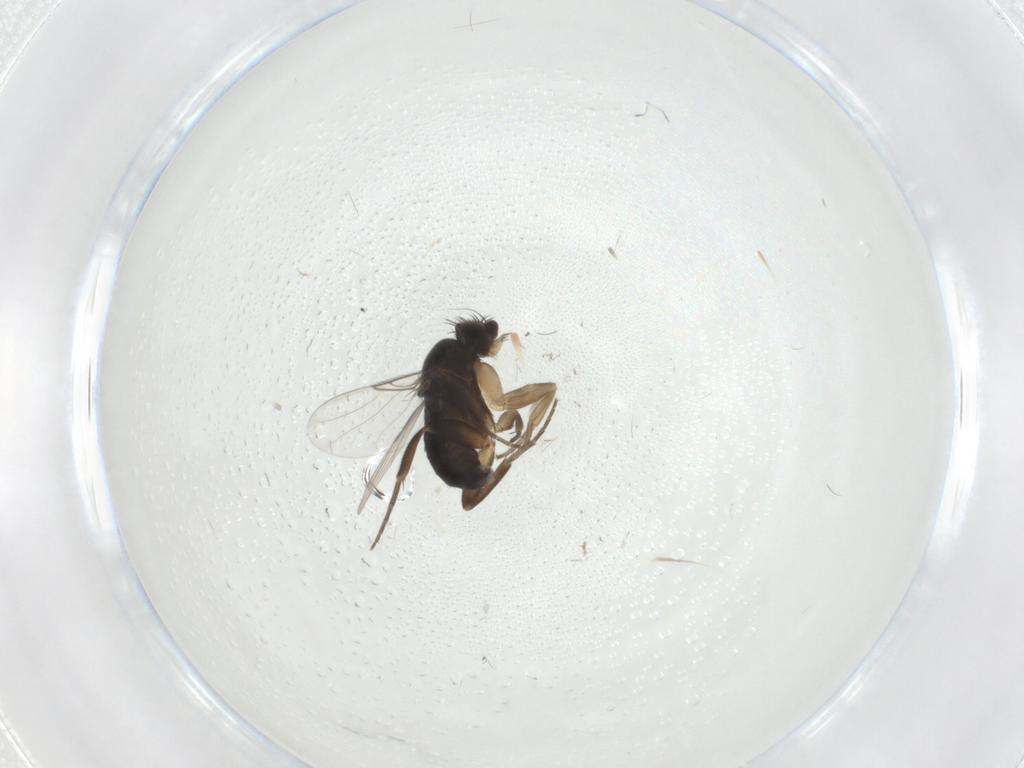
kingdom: Animalia
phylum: Arthropoda
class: Insecta
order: Diptera
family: Phoridae
